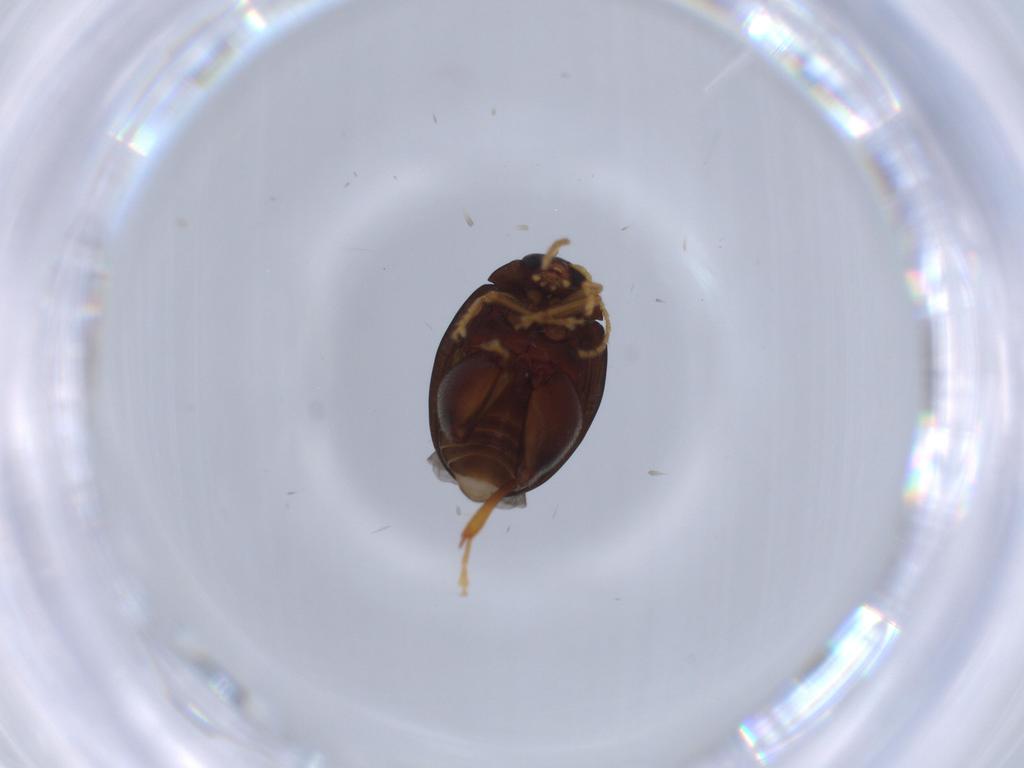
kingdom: Animalia
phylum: Arthropoda
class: Insecta
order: Coleoptera
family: Chrysomelidae
